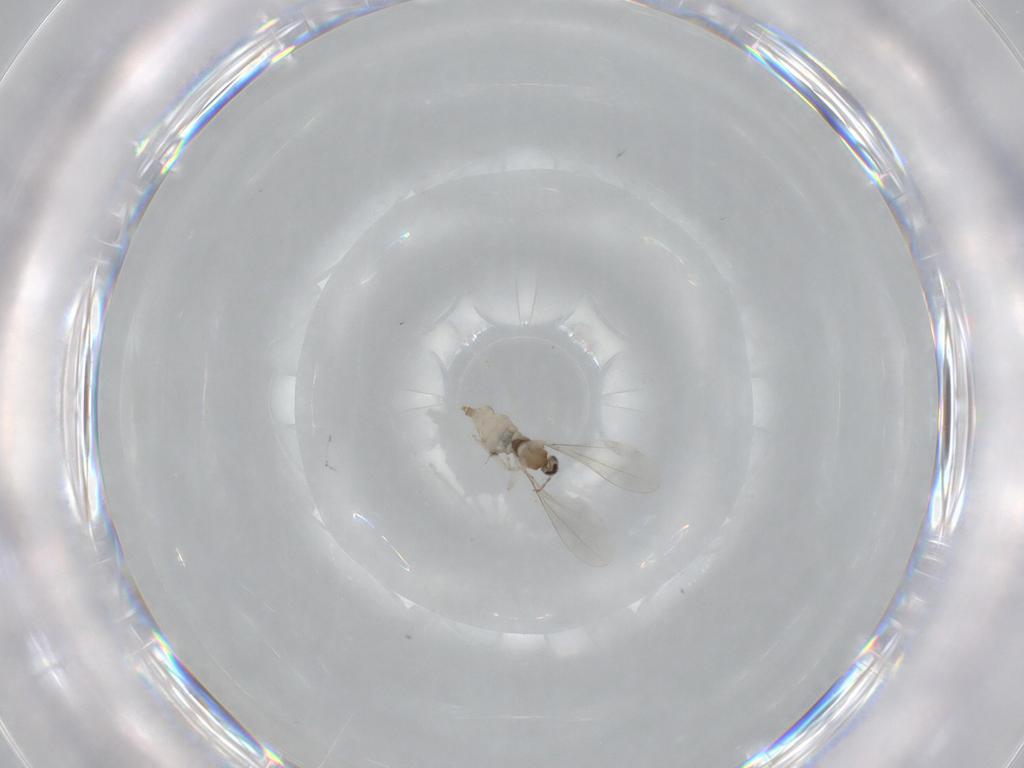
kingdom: Animalia
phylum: Arthropoda
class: Insecta
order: Diptera
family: Cecidomyiidae
